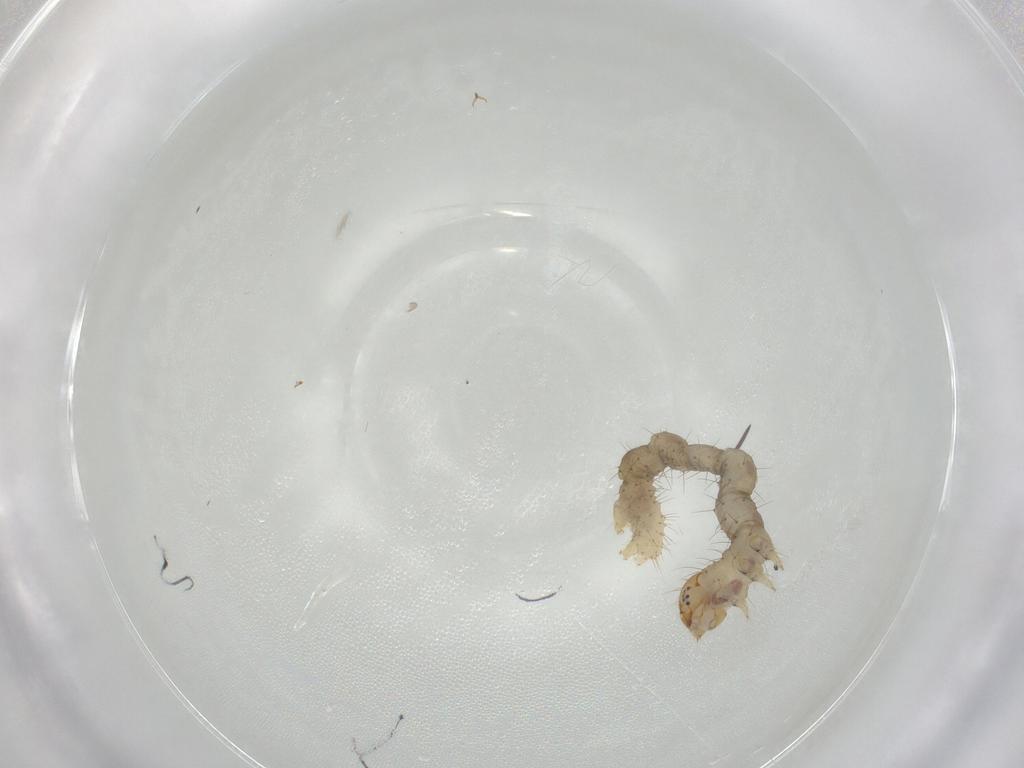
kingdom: Animalia
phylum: Arthropoda
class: Insecta
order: Lepidoptera
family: Geometridae
